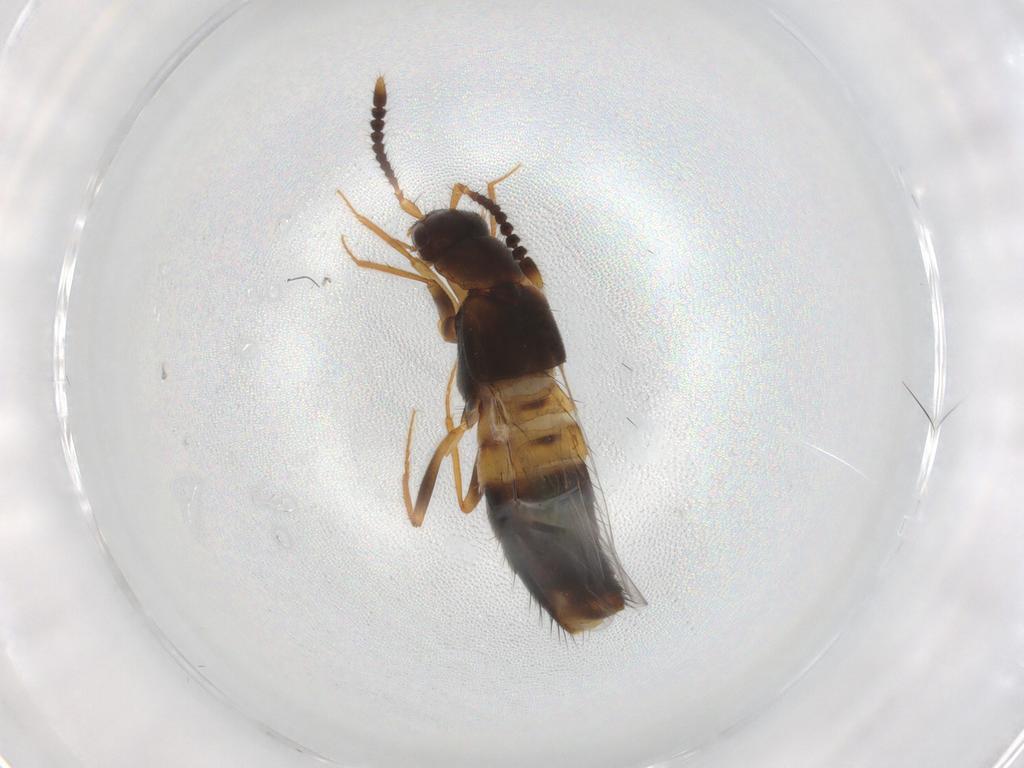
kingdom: Animalia
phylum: Arthropoda
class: Insecta
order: Coleoptera
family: Staphylinidae
